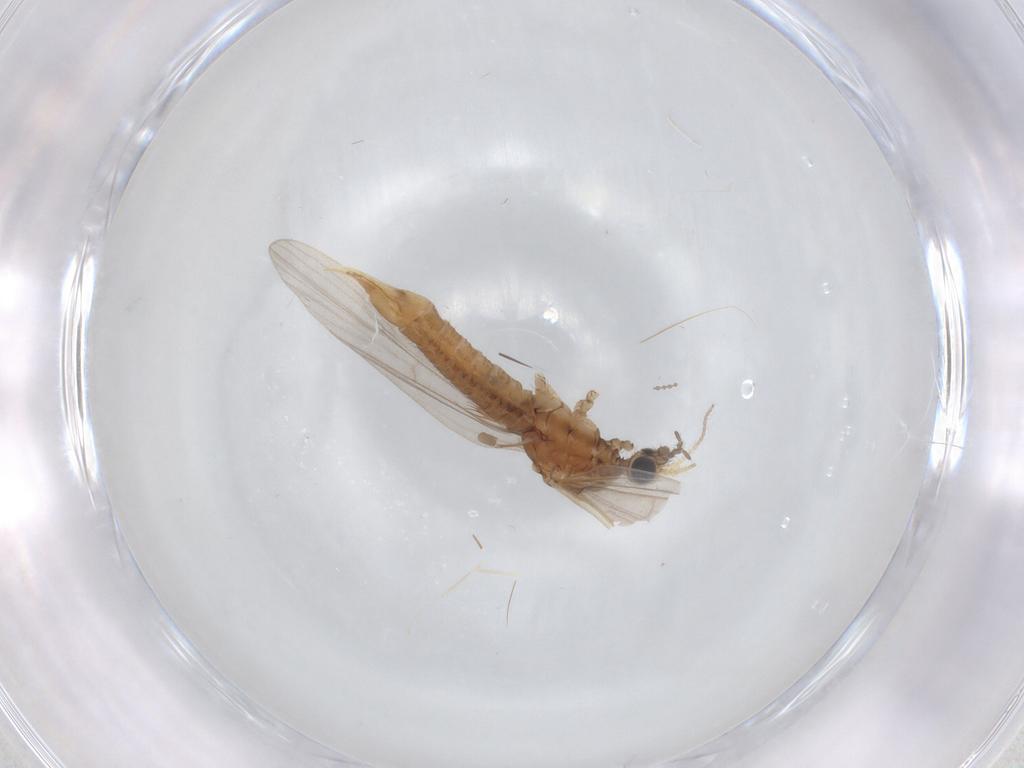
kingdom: Animalia
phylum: Arthropoda
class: Insecta
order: Diptera
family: Limoniidae
